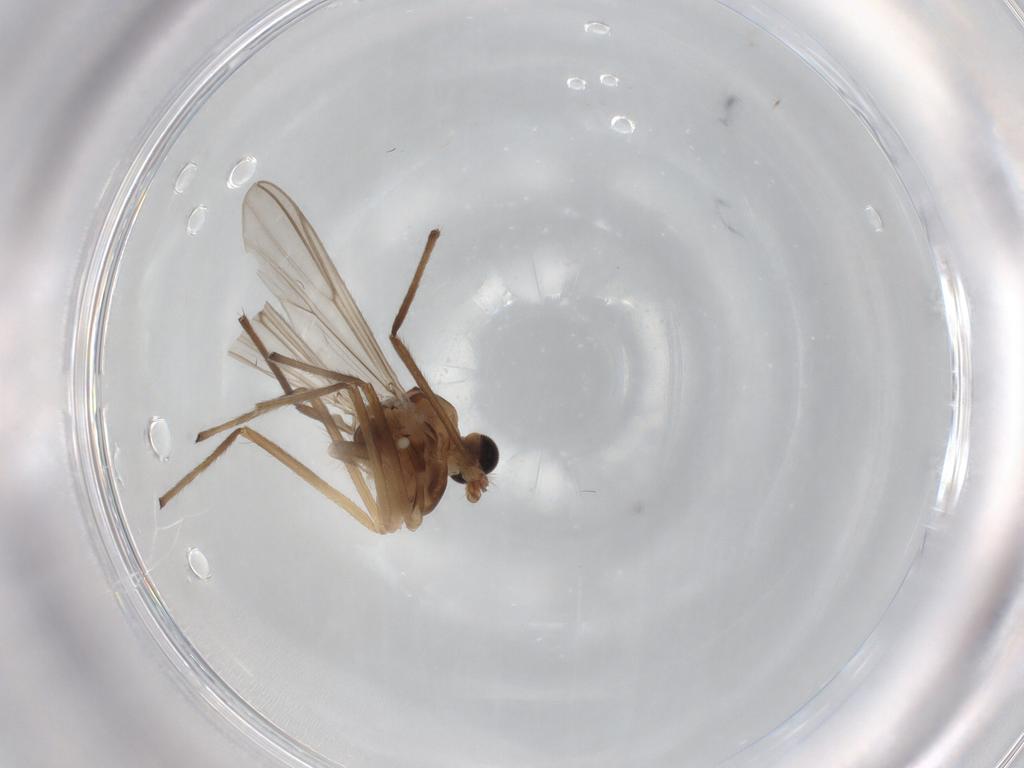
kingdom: Animalia
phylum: Arthropoda
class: Insecta
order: Diptera
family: Chironomidae
